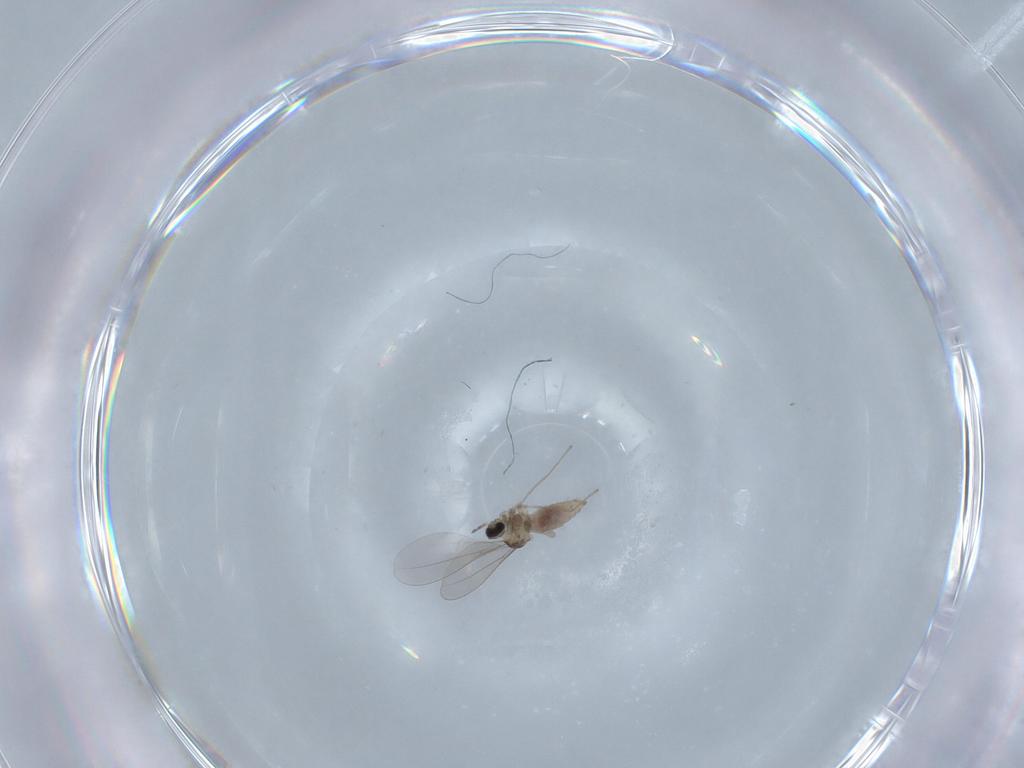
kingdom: Animalia
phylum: Arthropoda
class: Insecta
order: Diptera
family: Cecidomyiidae
